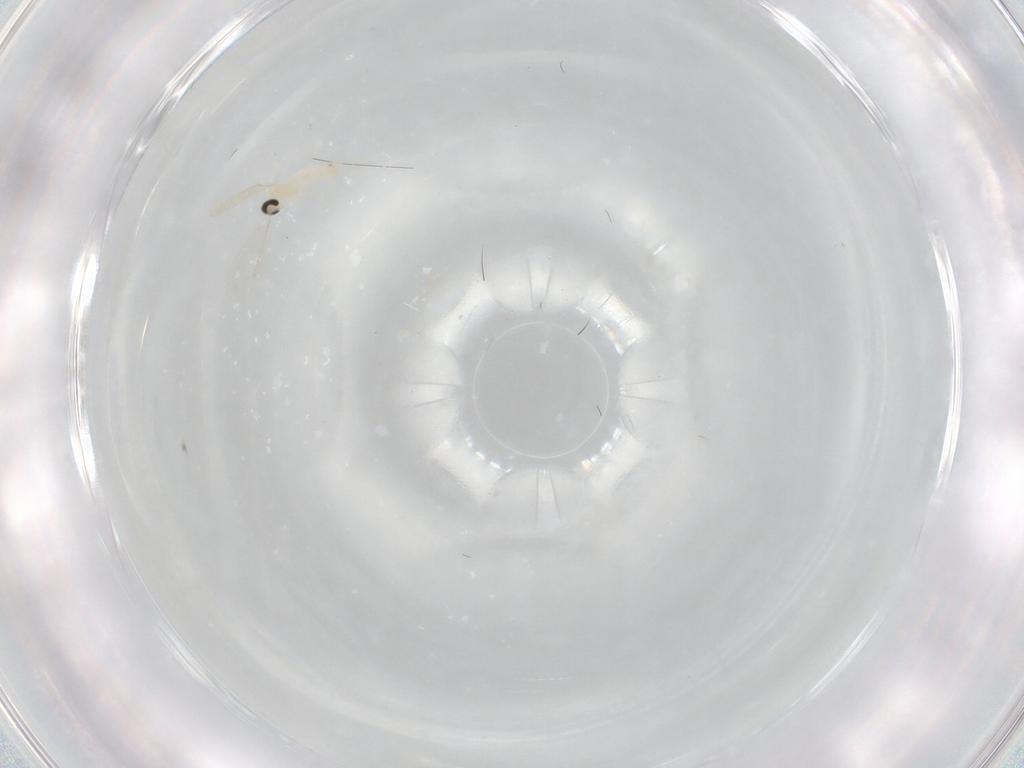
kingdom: Animalia
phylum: Arthropoda
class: Insecta
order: Diptera
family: Cecidomyiidae
